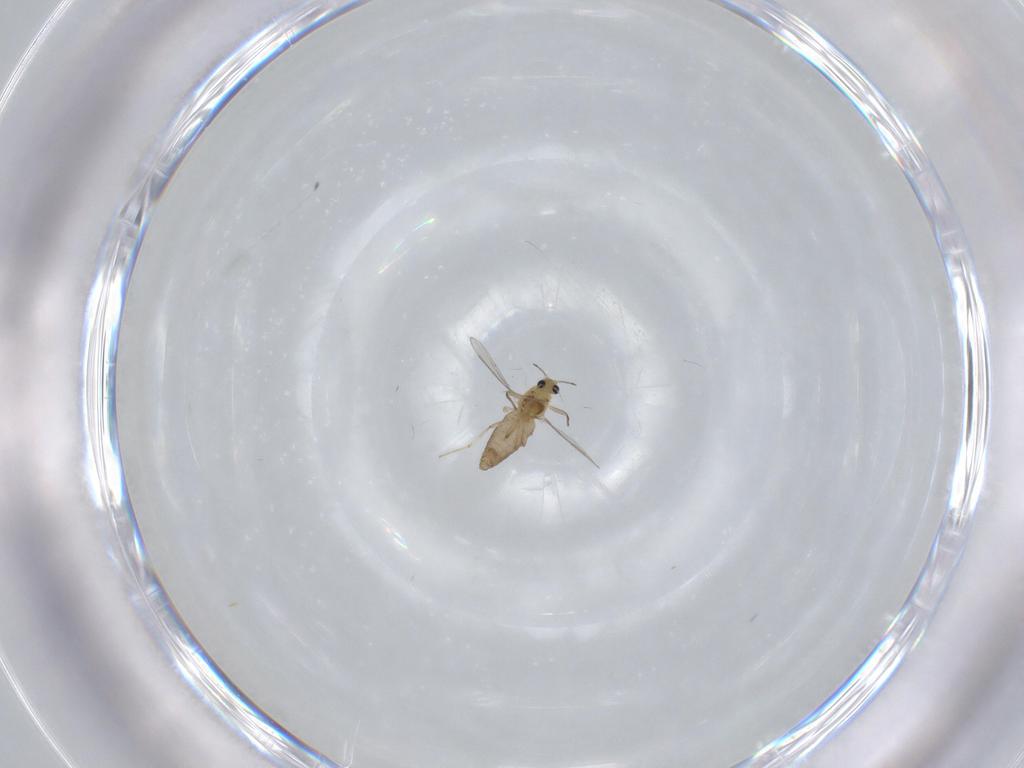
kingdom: Animalia
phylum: Arthropoda
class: Insecta
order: Diptera
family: Chironomidae
